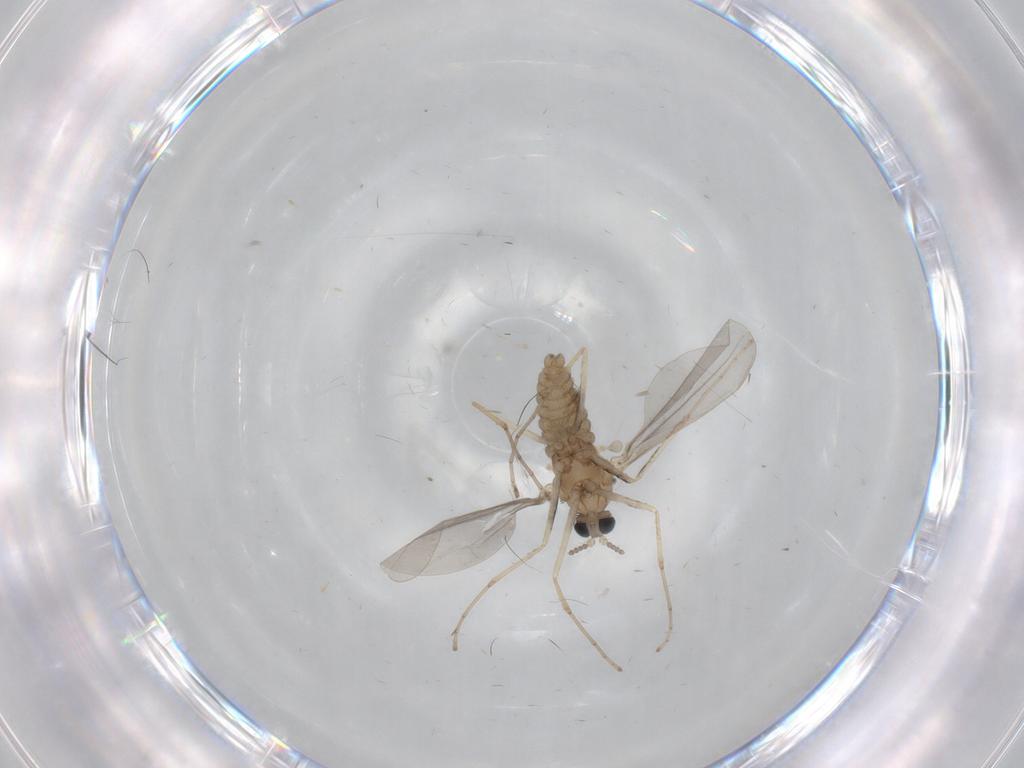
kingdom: Animalia
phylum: Arthropoda
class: Insecta
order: Diptera
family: Cecidomyiidae
